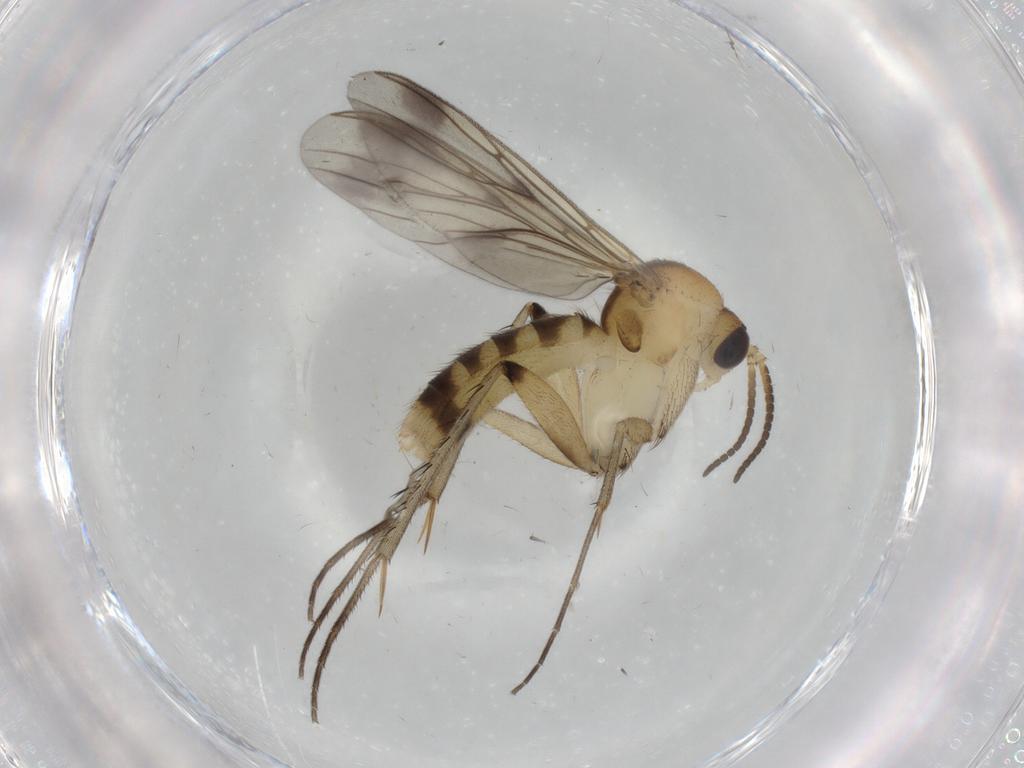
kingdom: Animalia
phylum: Arthropoda
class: Insecta
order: Diptera
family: Mycetophilidae
